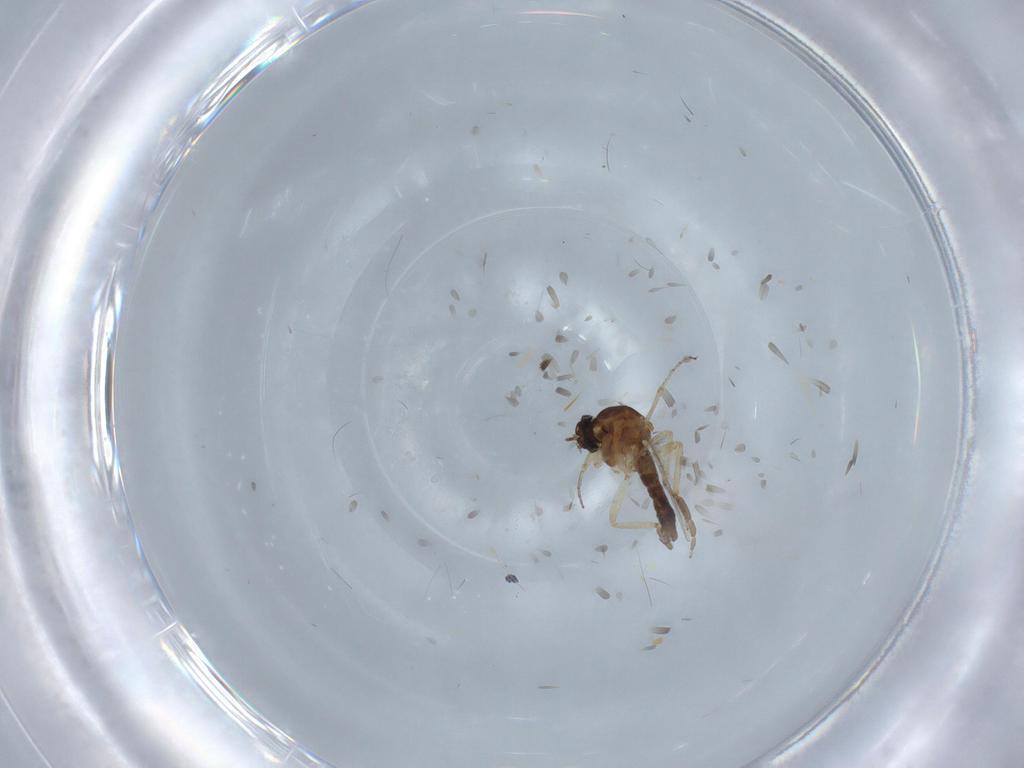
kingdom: Animalia
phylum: Arthropoda
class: Insecta
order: Diptera
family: Ceratopogonidae
